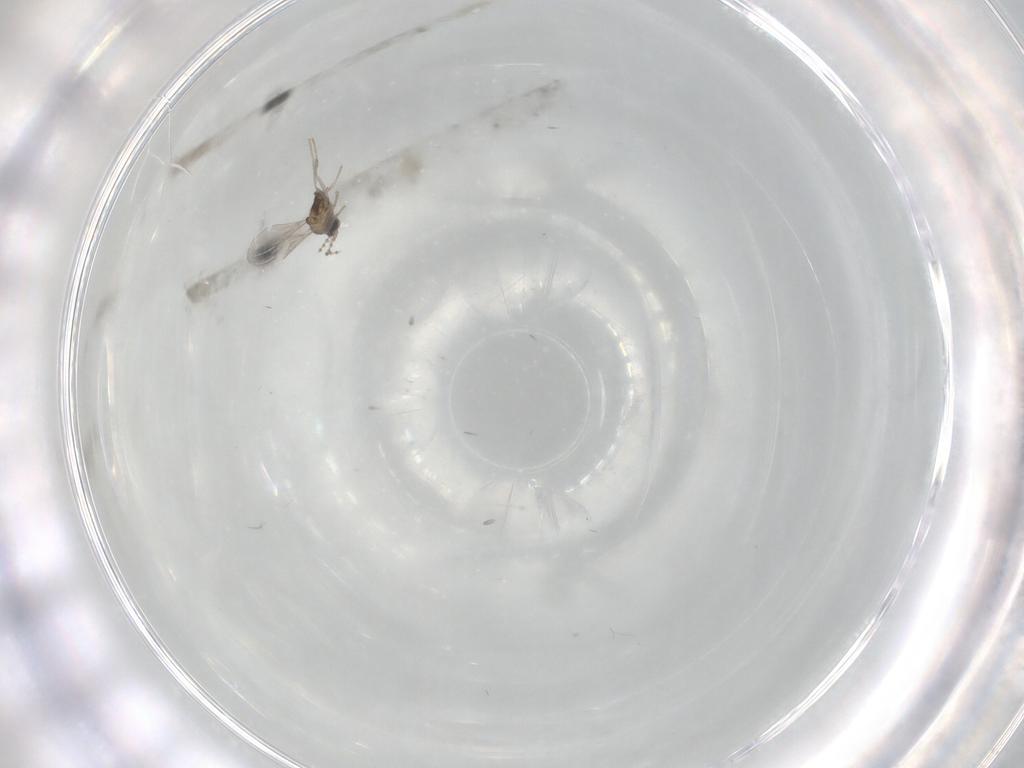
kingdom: Animalia
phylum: Arthropoda
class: Insecta
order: Diptera
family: Cecidomyiidae
